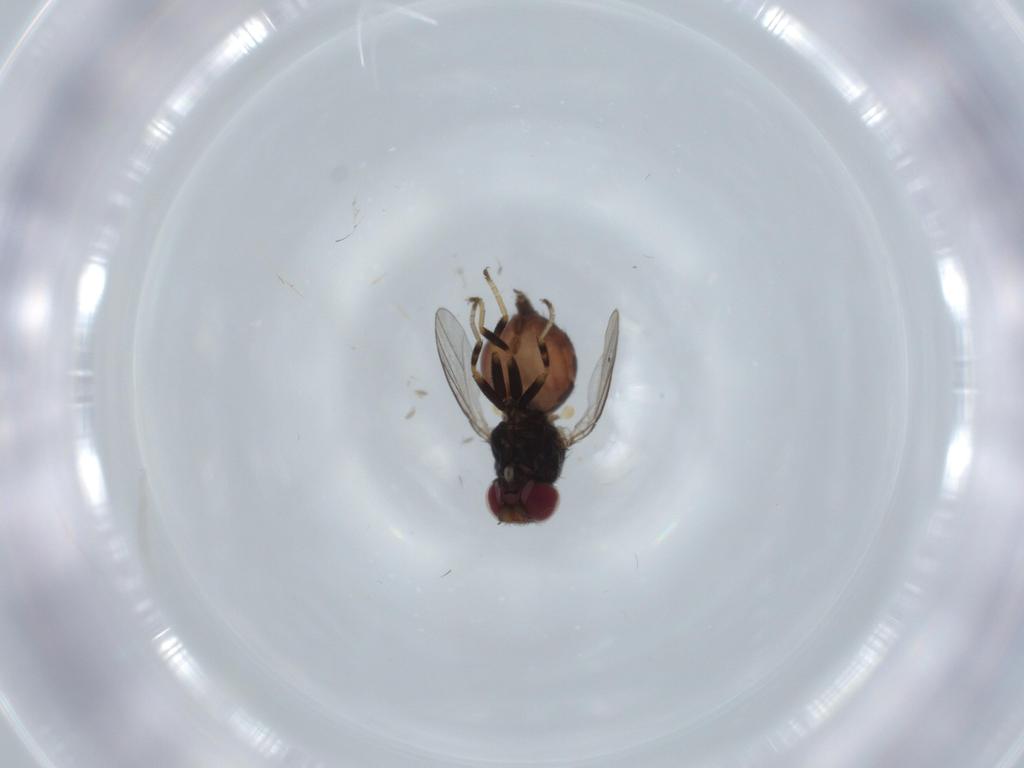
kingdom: Animalia
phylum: Arthropoda
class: Insecta
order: Diptera
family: Chloropidae
